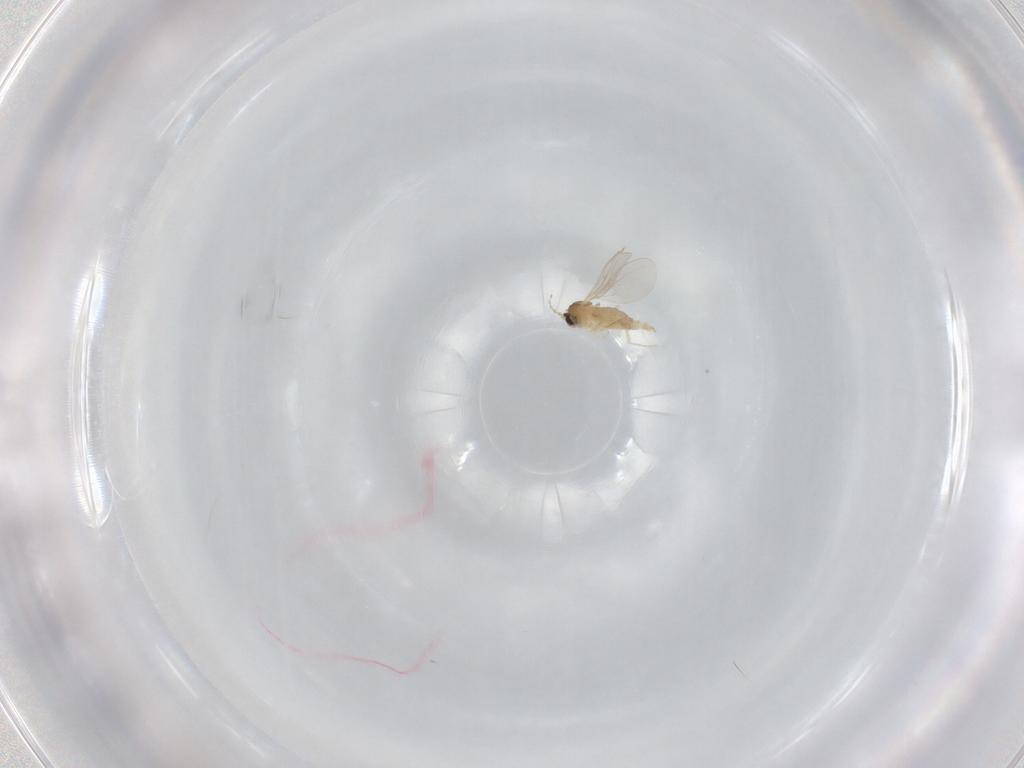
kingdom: Animalia
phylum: Arthropoda
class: Insecta
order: Diptera
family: Cecidomyiidae
